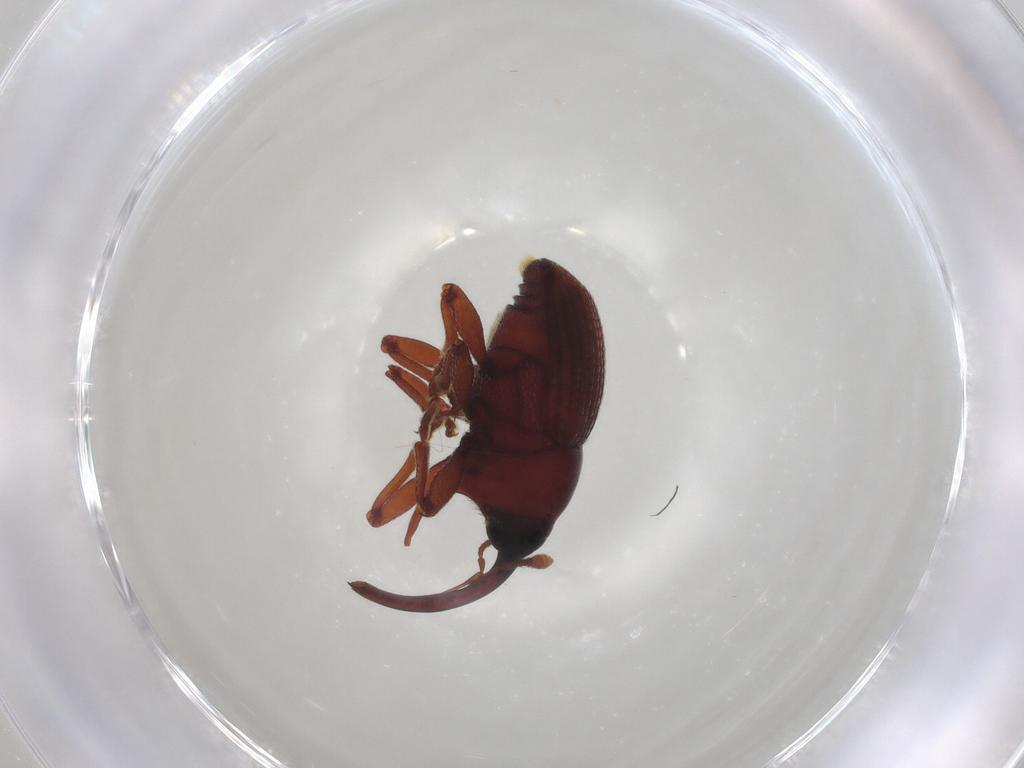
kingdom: Animalia
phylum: Arthropoda
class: Insecta
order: Coleoptera
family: Curculionidae
